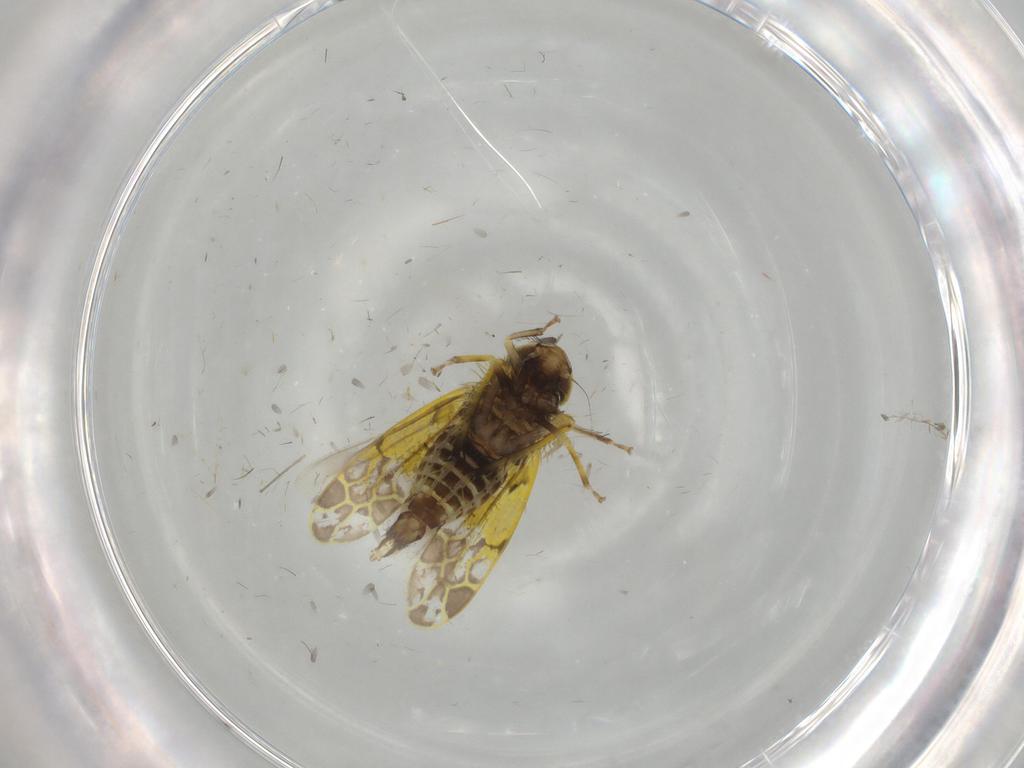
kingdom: Animalia
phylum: Arthropoda
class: Insecta
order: Hemiptera
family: Cicadellidae
